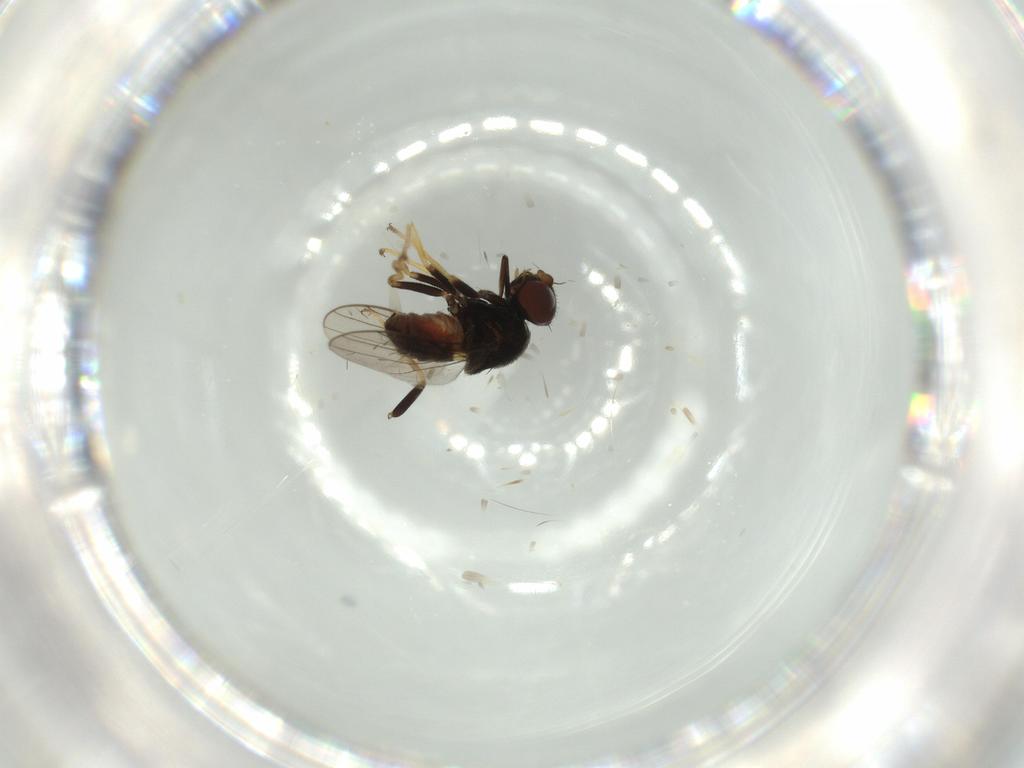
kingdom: Animalia
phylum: Arthropoda
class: Insecta
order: Diptera
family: Chloropidae
